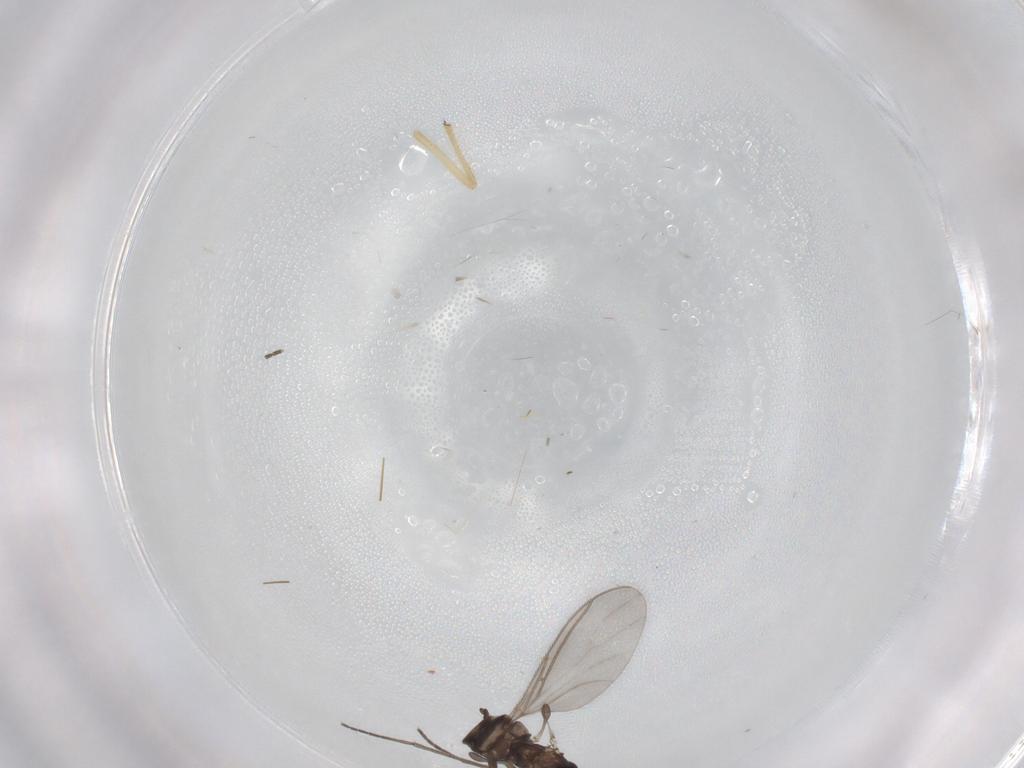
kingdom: Animalia
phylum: Arthropoda
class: Insecta
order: Diptera
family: Chironomidae
